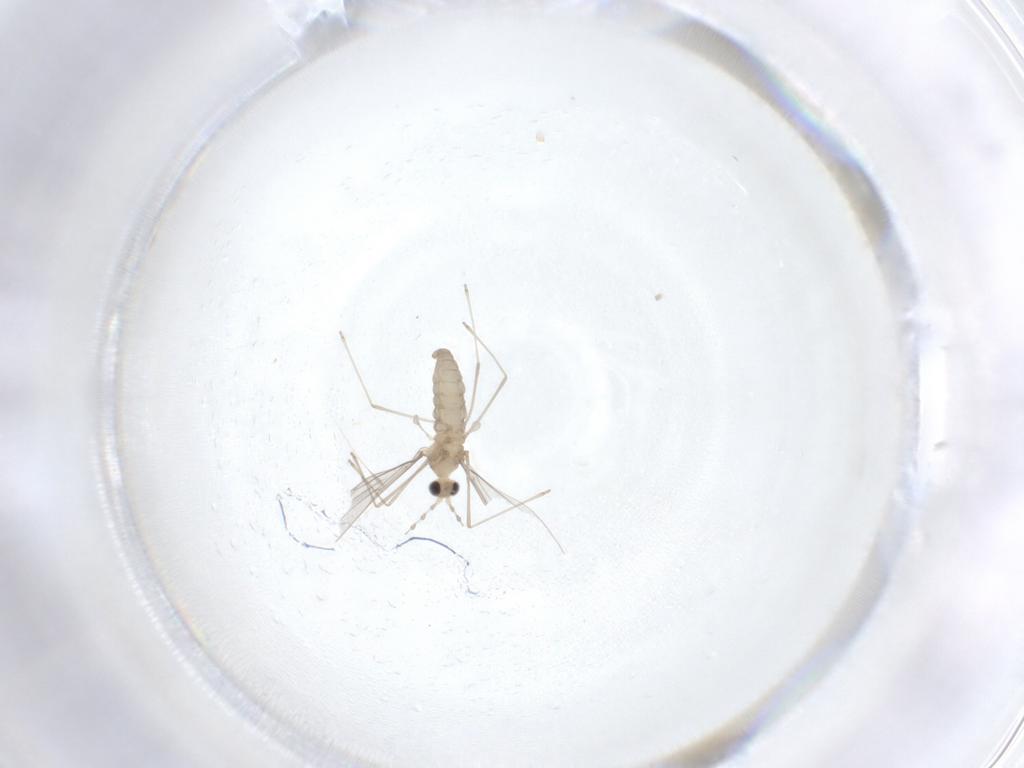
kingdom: Animalia
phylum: Arthropoda
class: Insecta
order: Diptera
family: Cecidomyiidae
